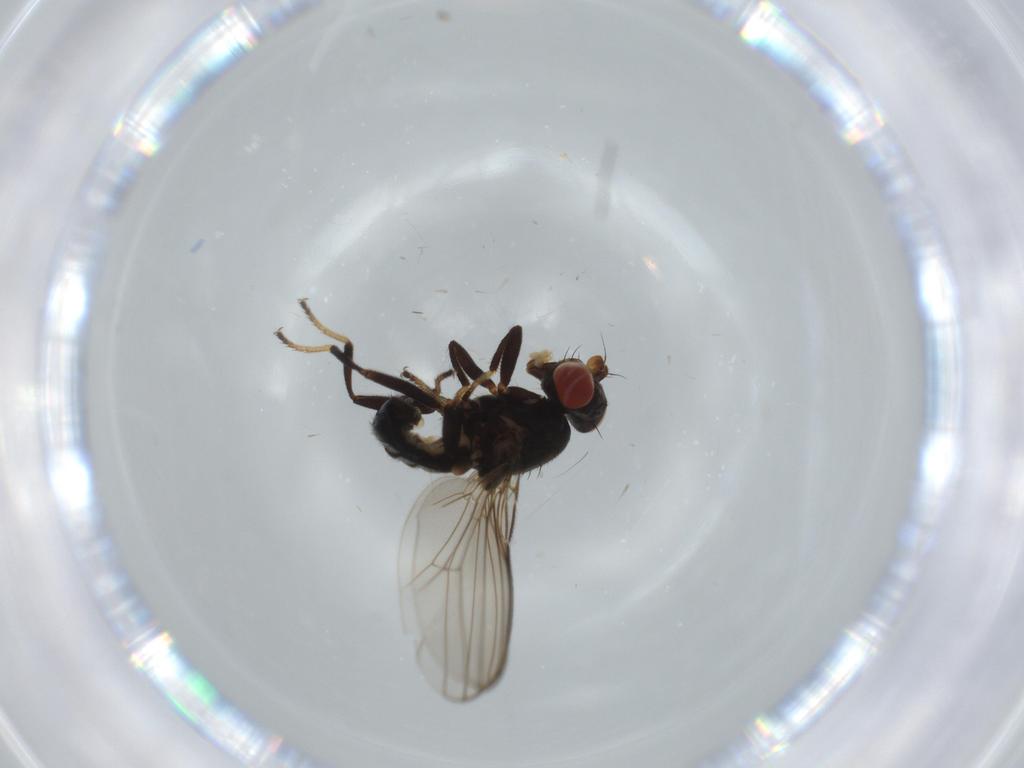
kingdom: Animalia
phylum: Arthropoda
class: Insecta
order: Diptera
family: Tachinidae
